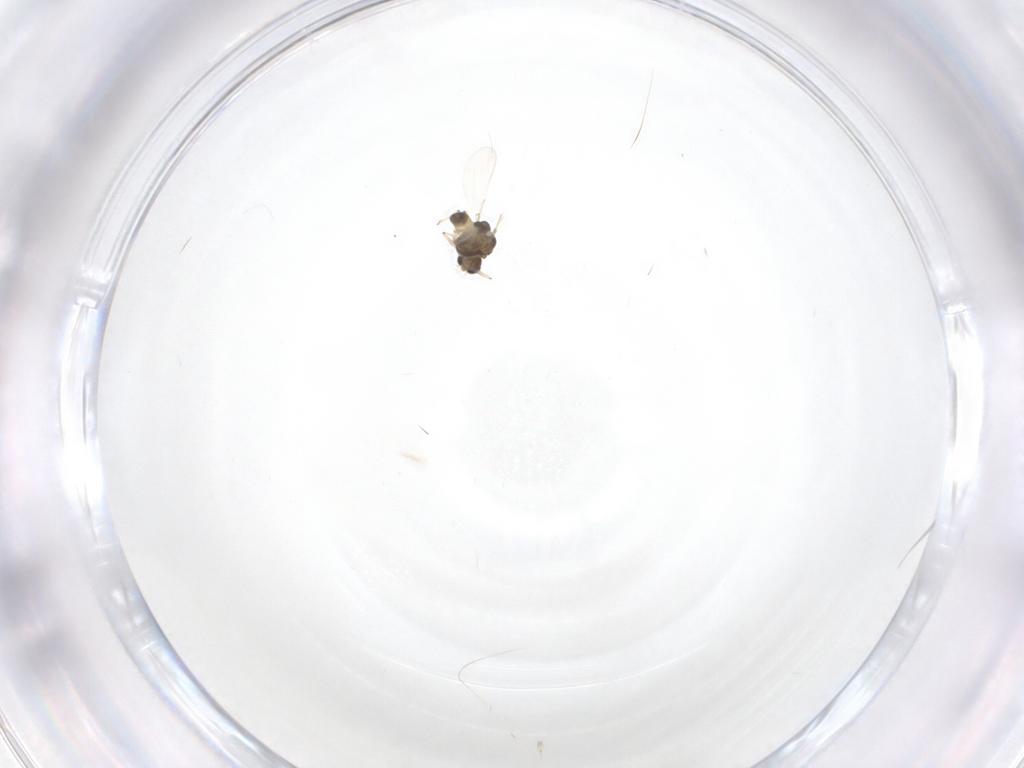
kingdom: Animalia
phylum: Arthropoda
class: Insecta
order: Diptera
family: Chironomidae
